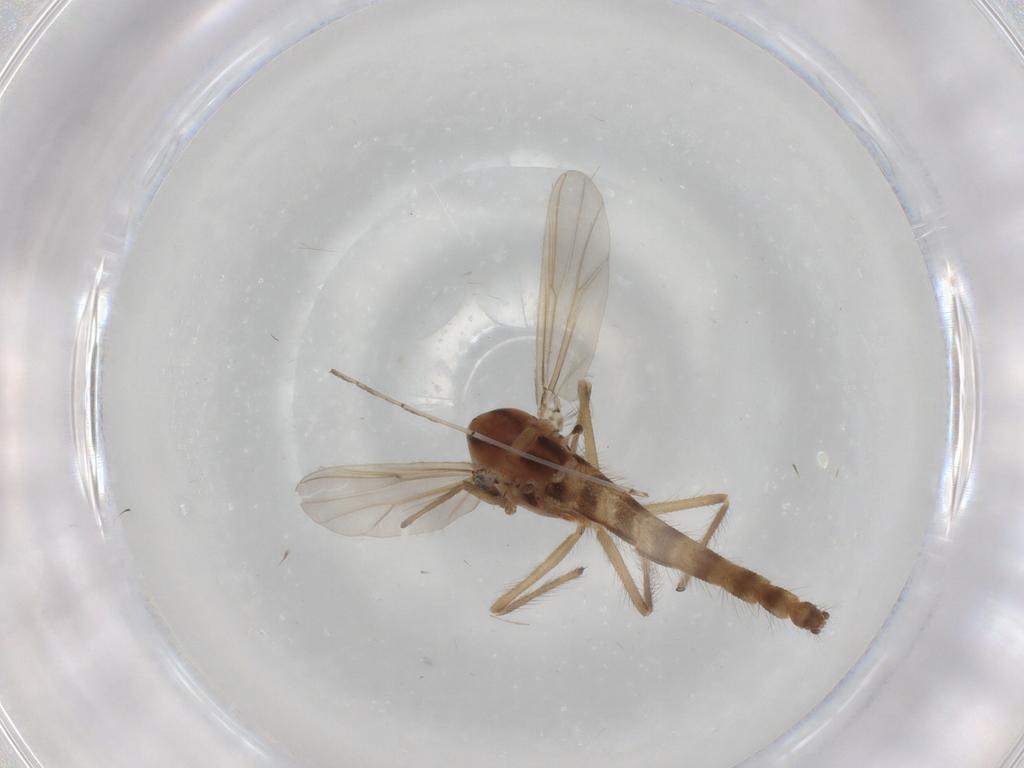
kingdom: Animalia
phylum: Arthropoda
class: Insecta
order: Diptera
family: Chironomidae
